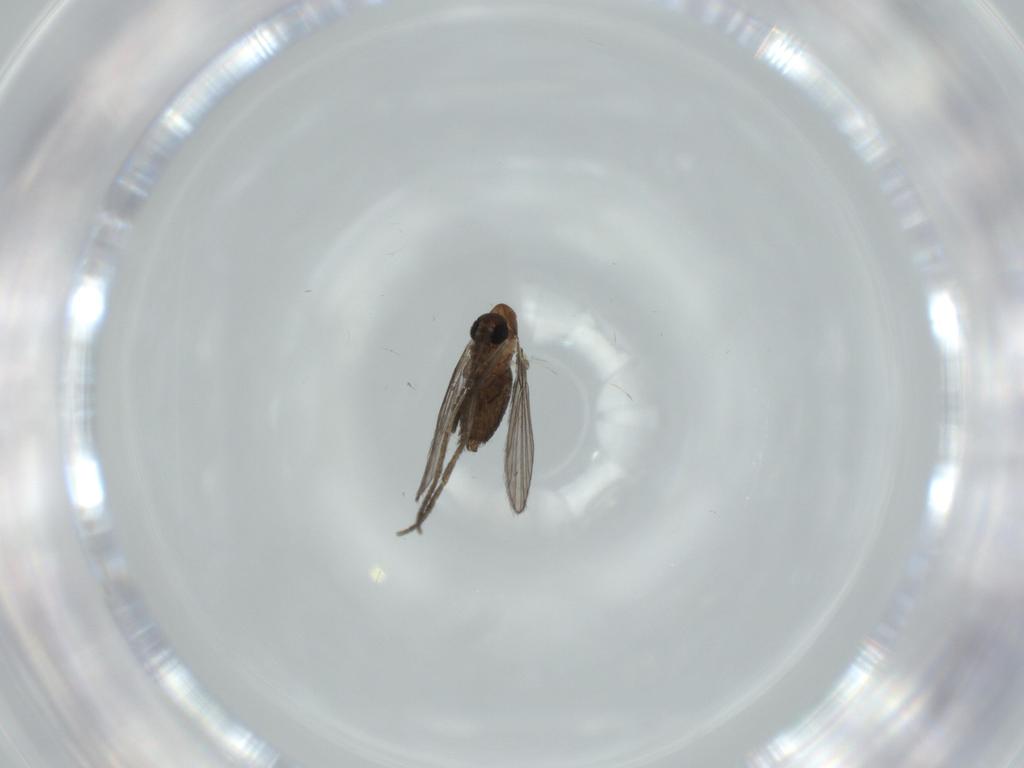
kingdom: Animalia
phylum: Arthropoda
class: Insecta
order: Diptera
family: Psychodidae
